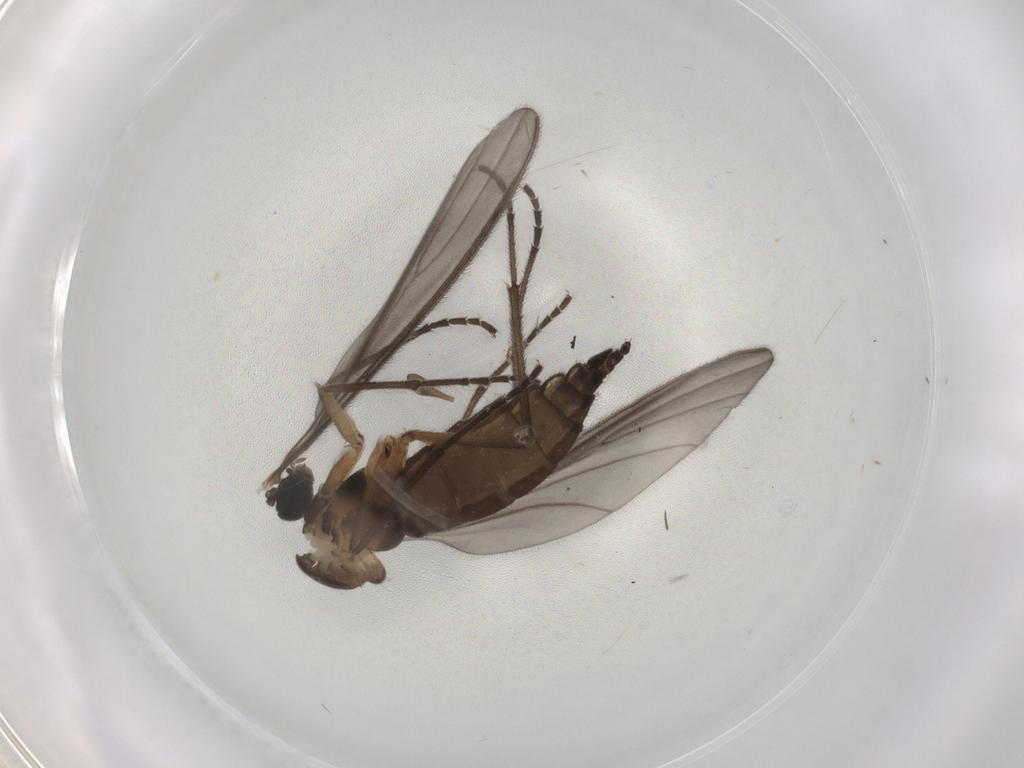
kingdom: Animalia
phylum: Arthropoda
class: Insecta
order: Diptera
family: Sciaridae
